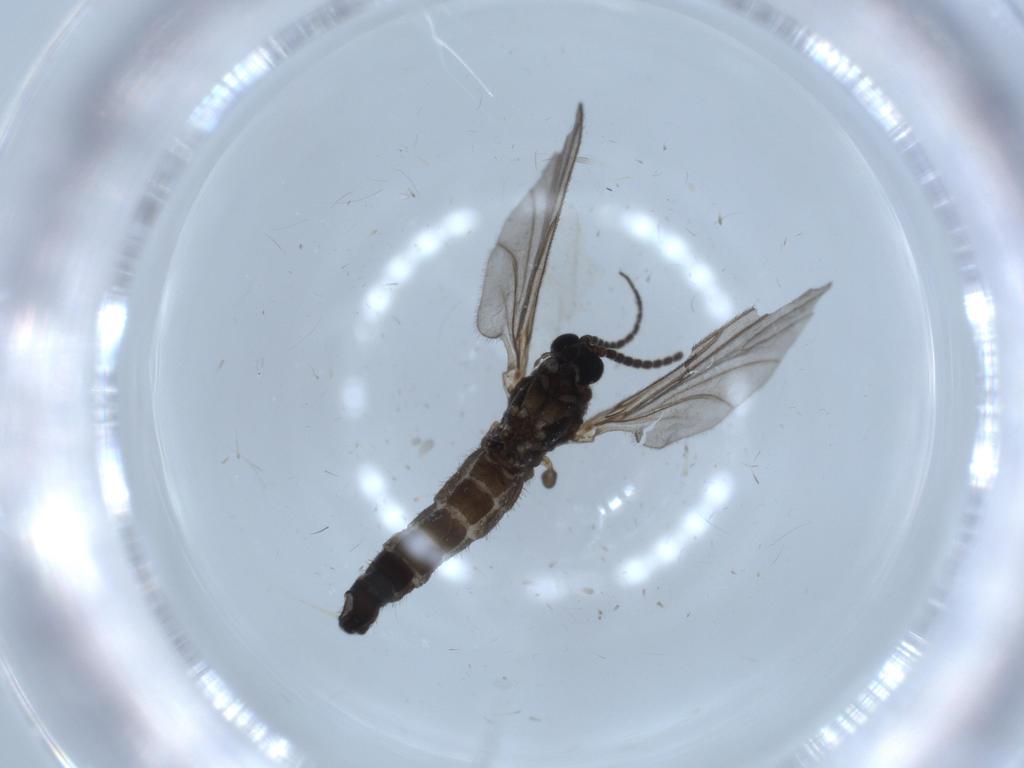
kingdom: Animalia
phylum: Arthropoda
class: Insecta
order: Diptera
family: Sciaridae
